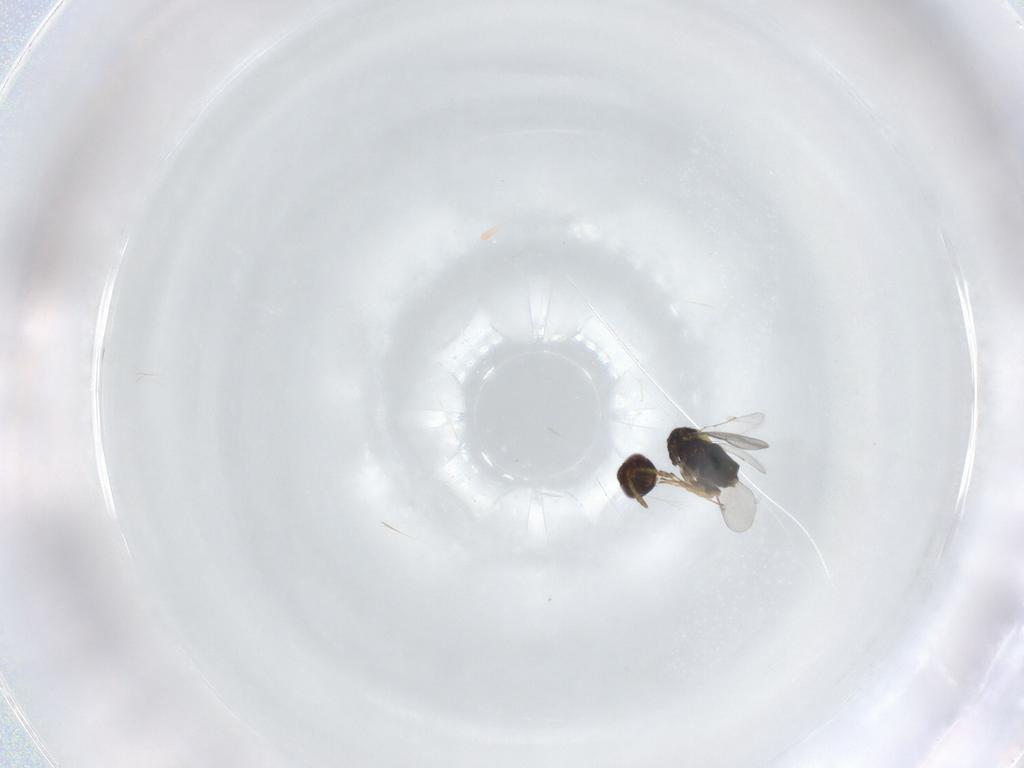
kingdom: Animalia
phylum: Arthropoda
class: Insecta
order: Hymenoptera
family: Aphelinidae
